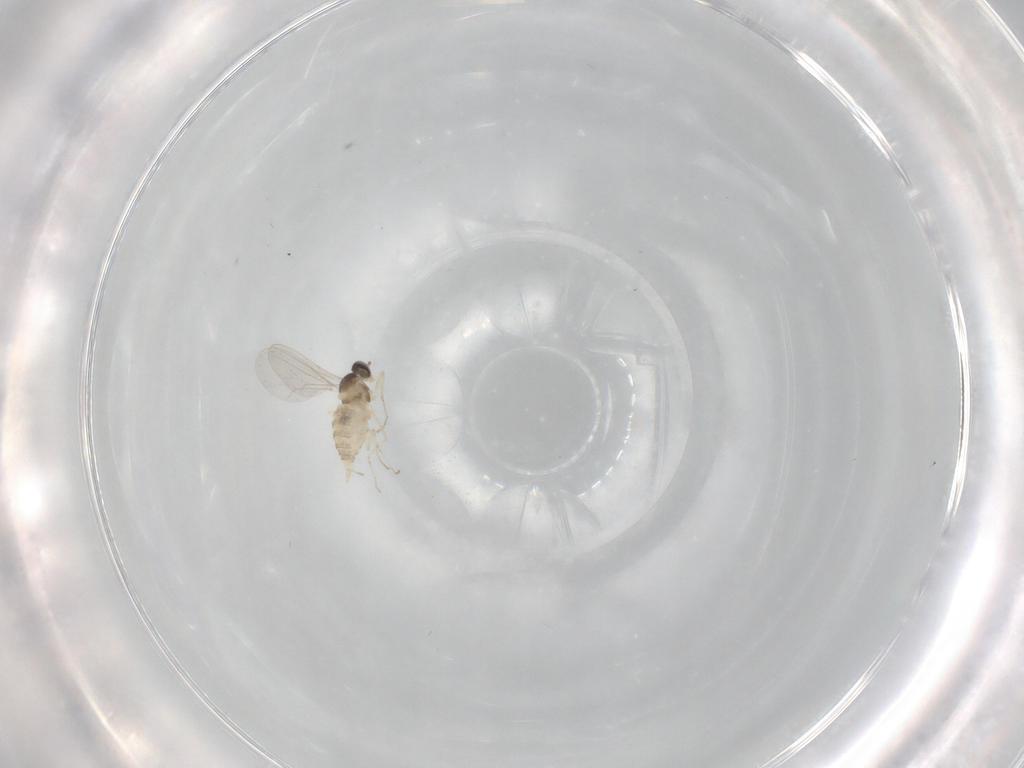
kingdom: Animalia
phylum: Arthropoda
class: Insecta
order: Diptera
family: Cecidomyiidae
